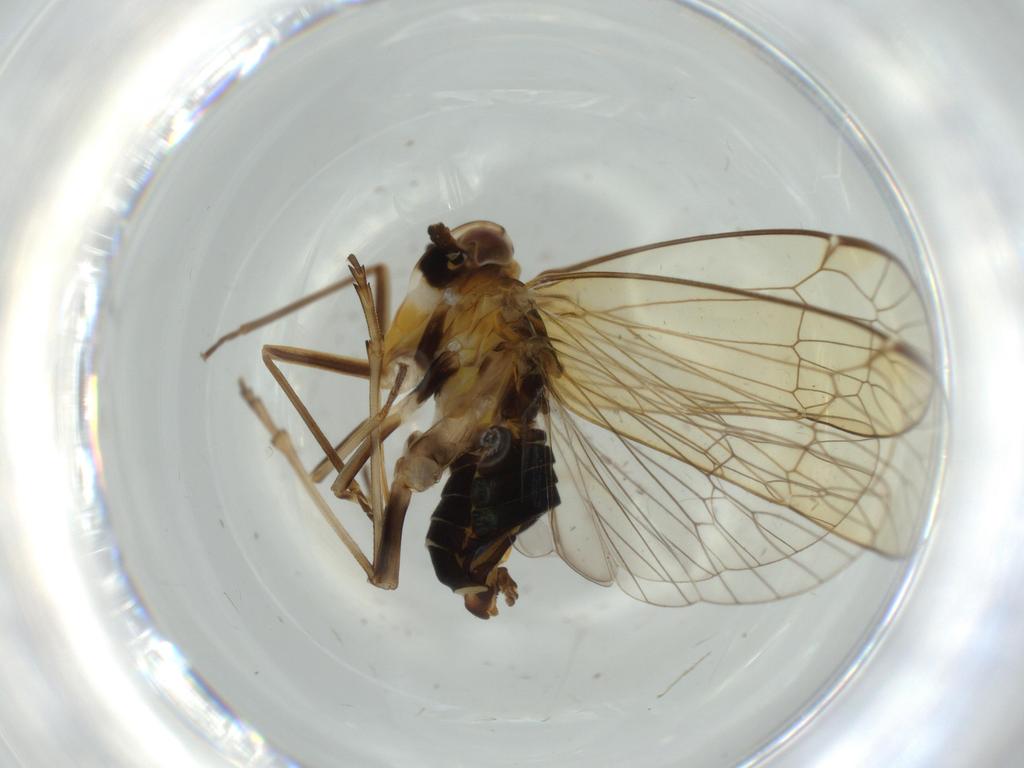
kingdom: Animalia
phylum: Arthropoda
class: Insecta
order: Hemiptera
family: Kinnaridae
